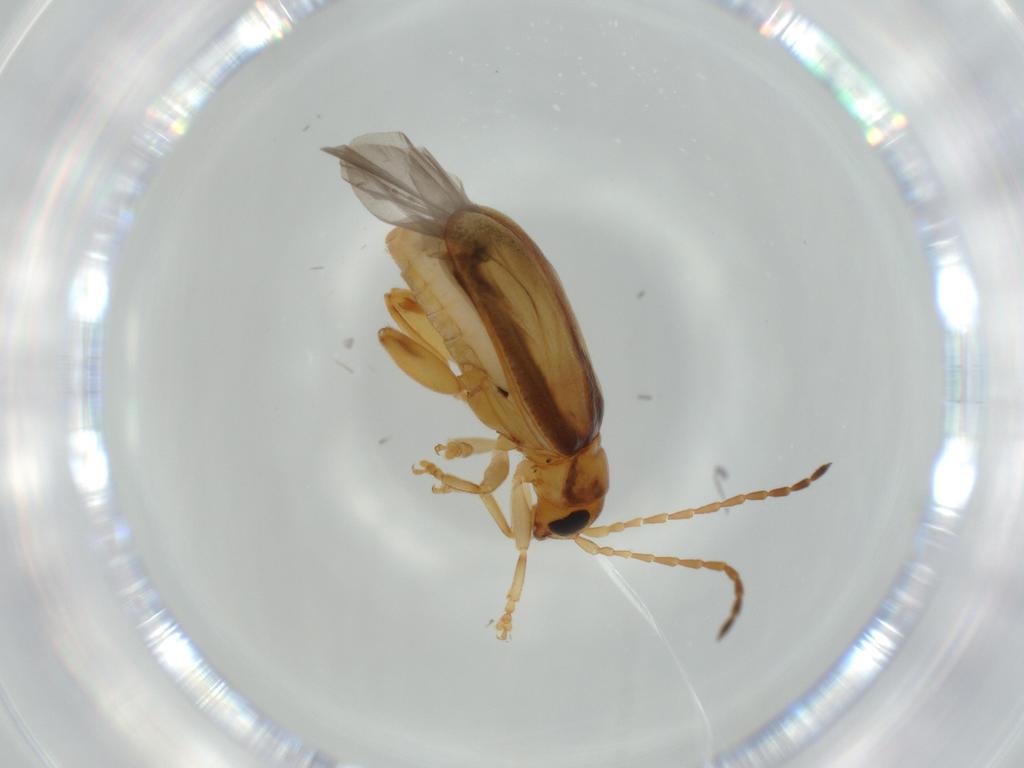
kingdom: Animalia
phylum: Arthropoda
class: Insecta
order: Coleoptera
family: Chrysomelidae
